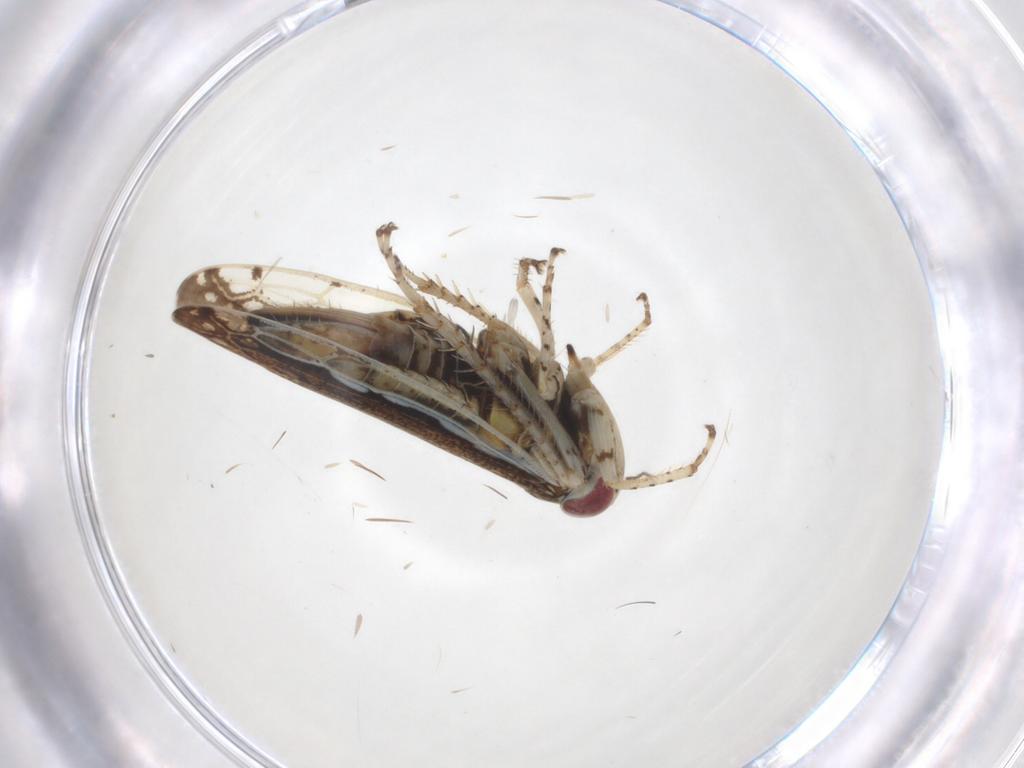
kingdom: Animalia
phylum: Arthropoda
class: Insecta
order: Hemiptera
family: Cicadellidae
